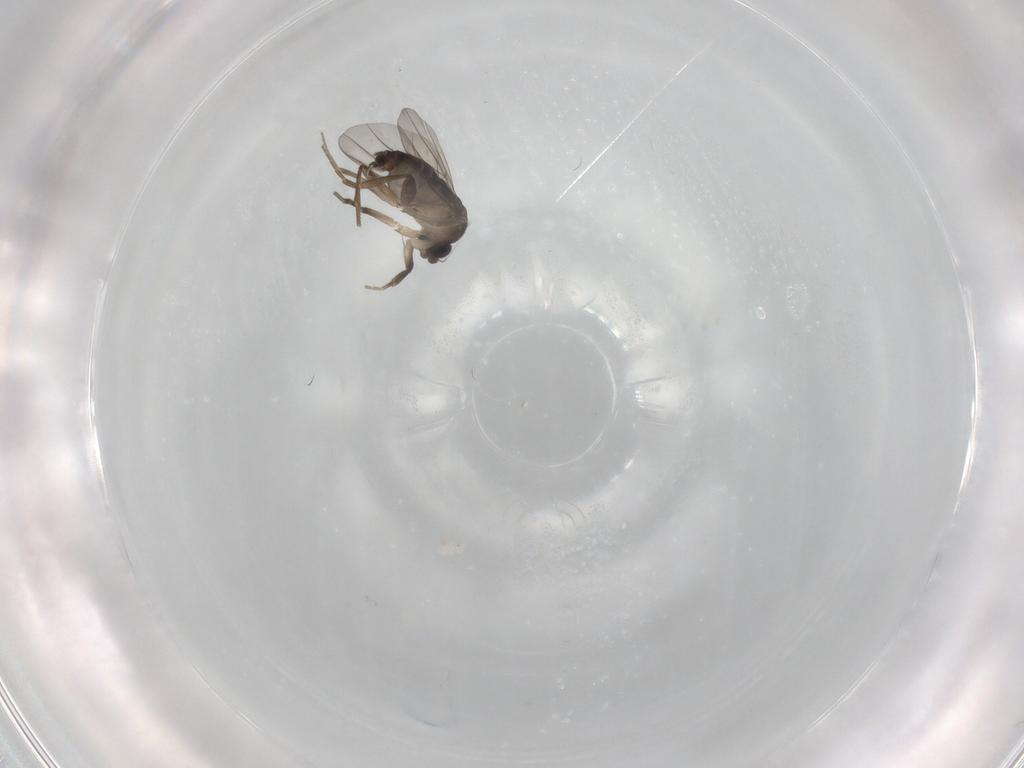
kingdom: Animalia
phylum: Arthropoda
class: Insecta
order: Diptera
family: Phoridae
